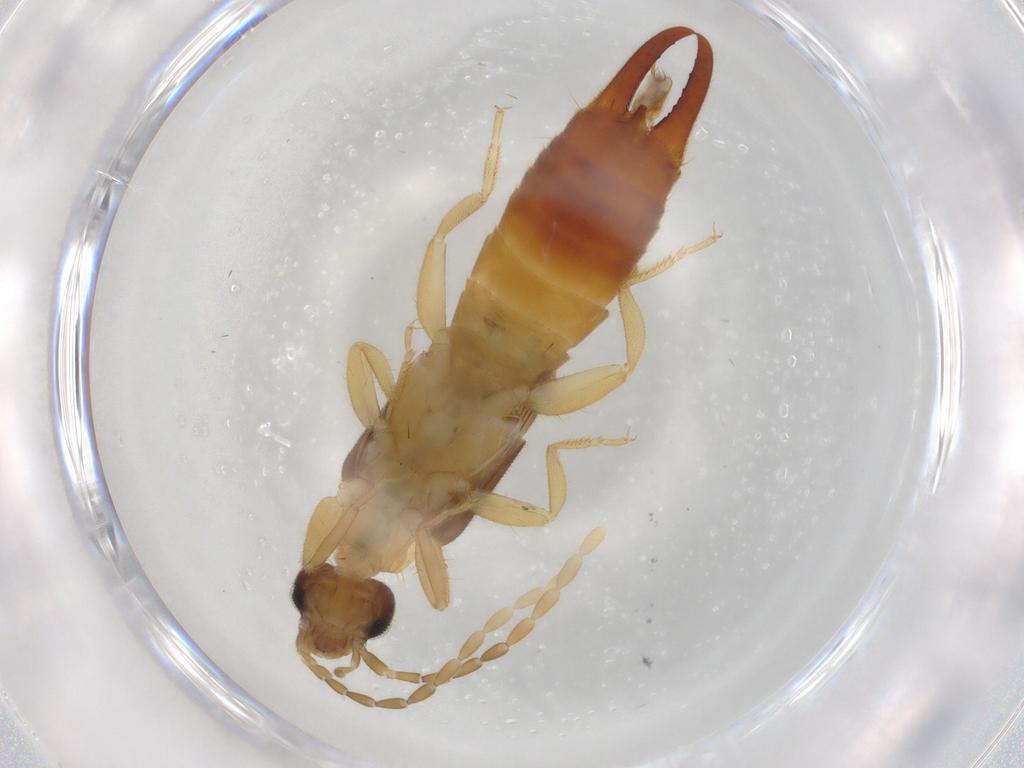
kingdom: Animalia
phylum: Arthropoda
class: Insecta
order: Dermaptera
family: Spongiphoridae
